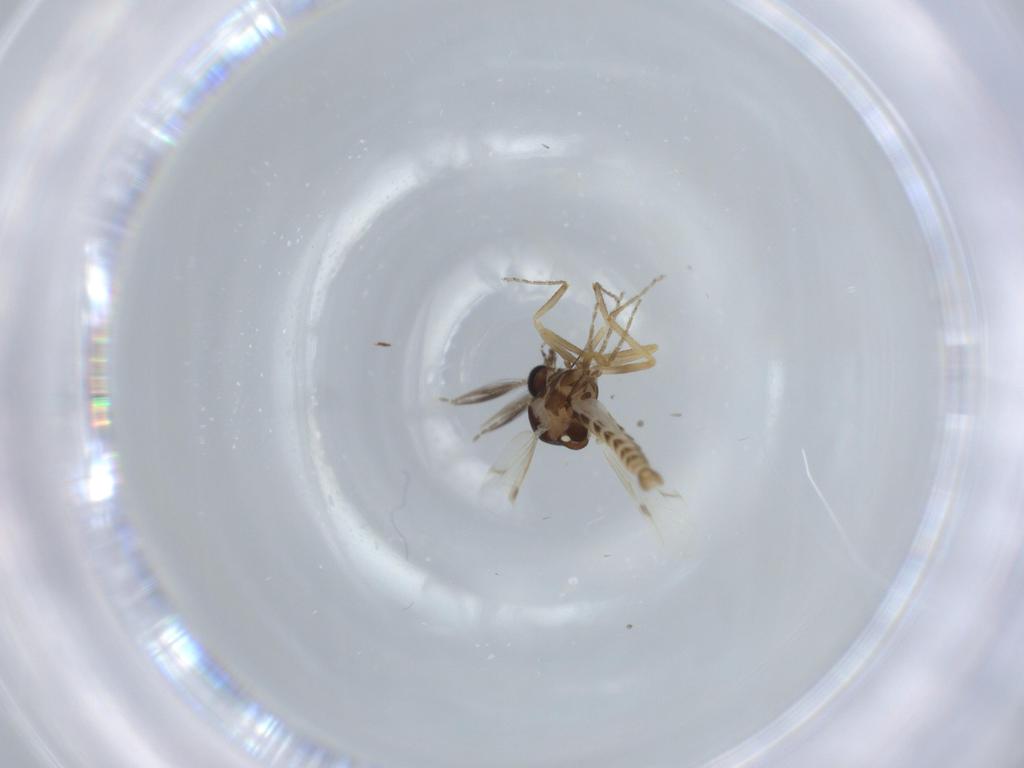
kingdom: Animalia
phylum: Arthropoda
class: Insecta
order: Diptera
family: Ceratopogonidae
